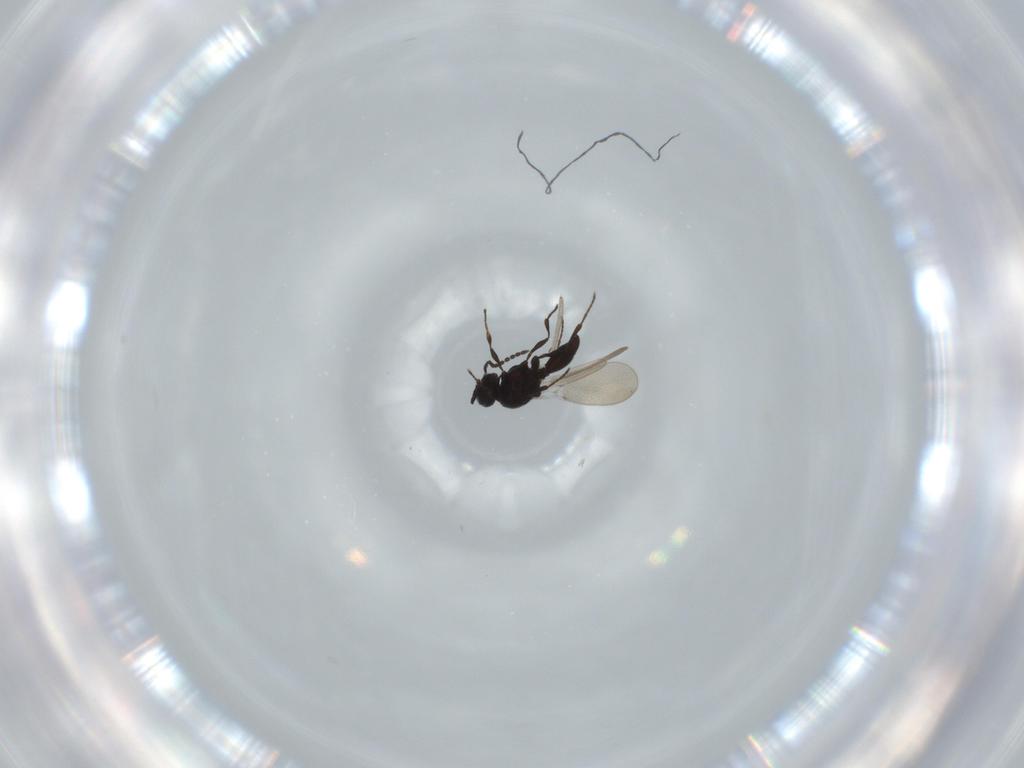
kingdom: Animalia
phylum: Arthropoda
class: Insecta
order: Hymenoptera
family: Platygastridae
